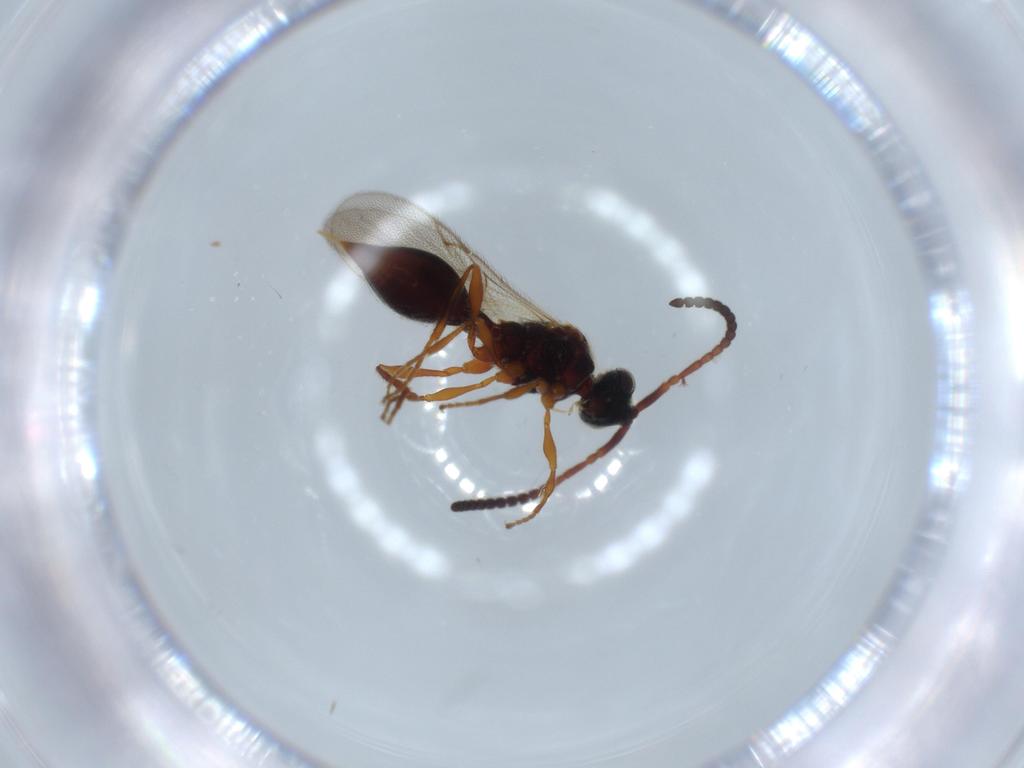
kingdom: Animalia
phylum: Arthropoda
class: Insecta
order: Hymenoptera
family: Diapriidae
